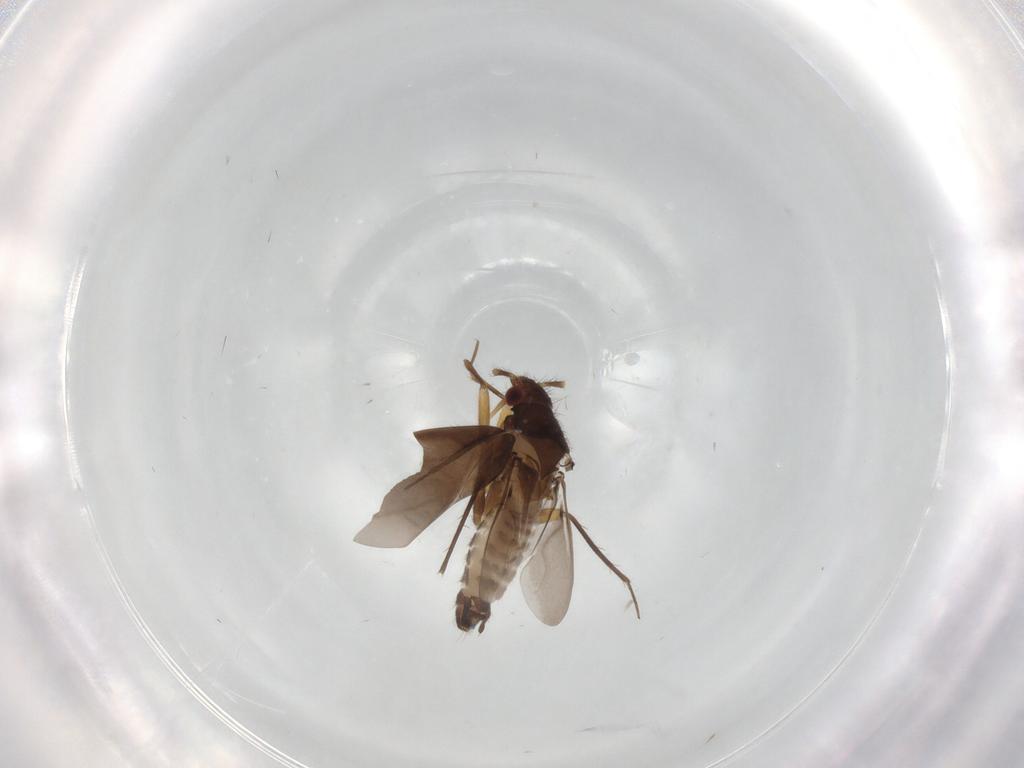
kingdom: Animalia
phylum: Arthropoda
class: Insecta
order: Hemiptera
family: Ceratocombidae
